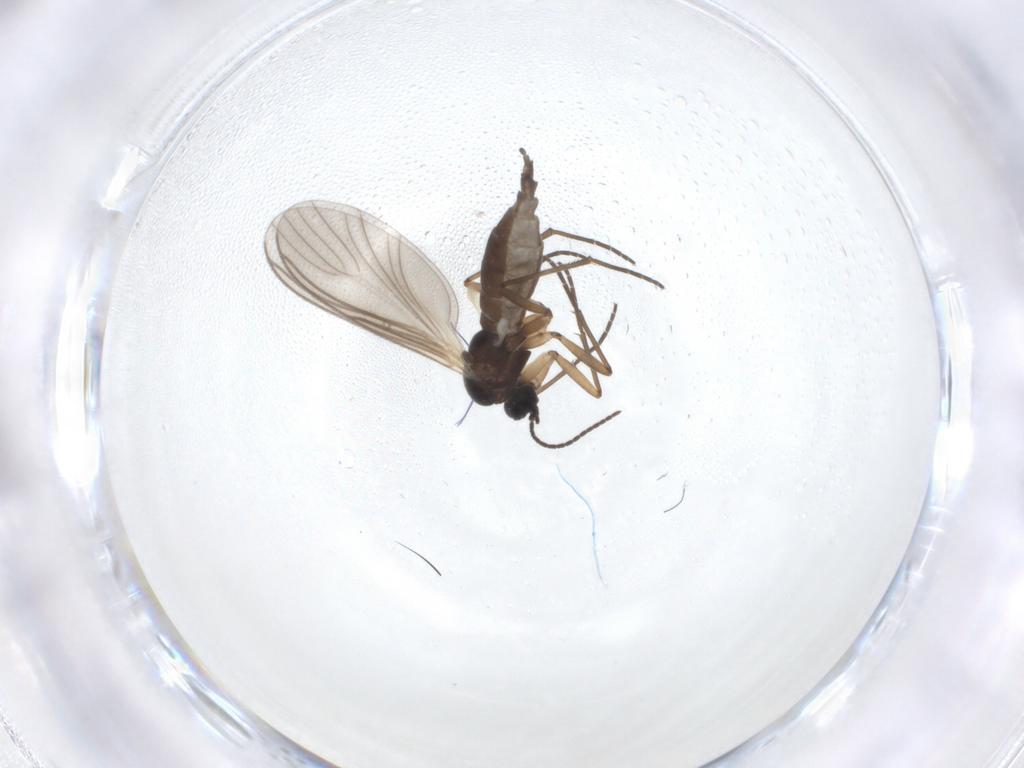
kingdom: Animalia
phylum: Arthropoda
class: Insecta
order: Diptera
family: Sciaridae
